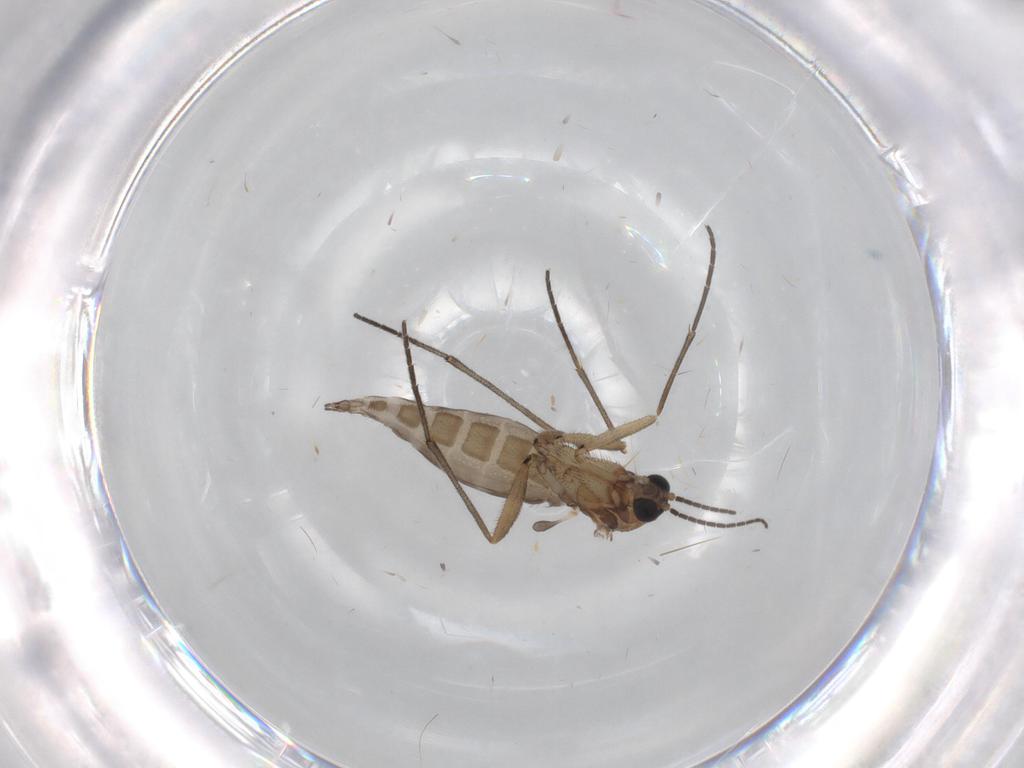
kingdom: Animalia
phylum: Arthropoda
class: Insecta
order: Diptera
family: Sciaridae
